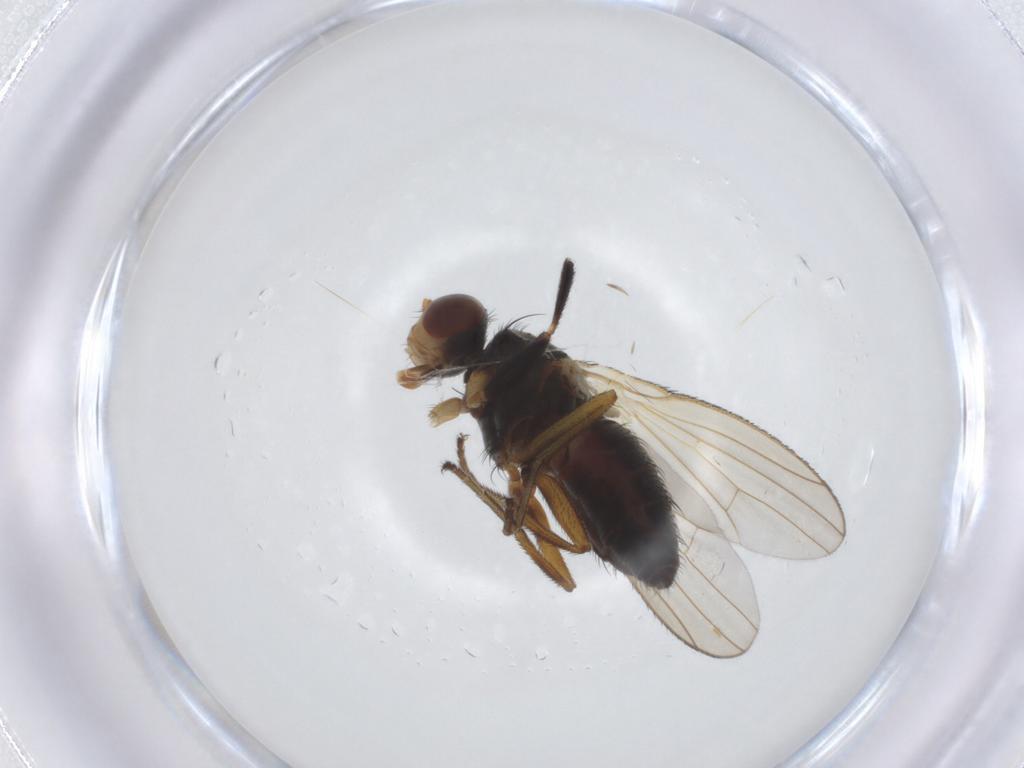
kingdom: Animalia
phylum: Arthropoda
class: Insecta
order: Diptera
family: Heleomyzidae
